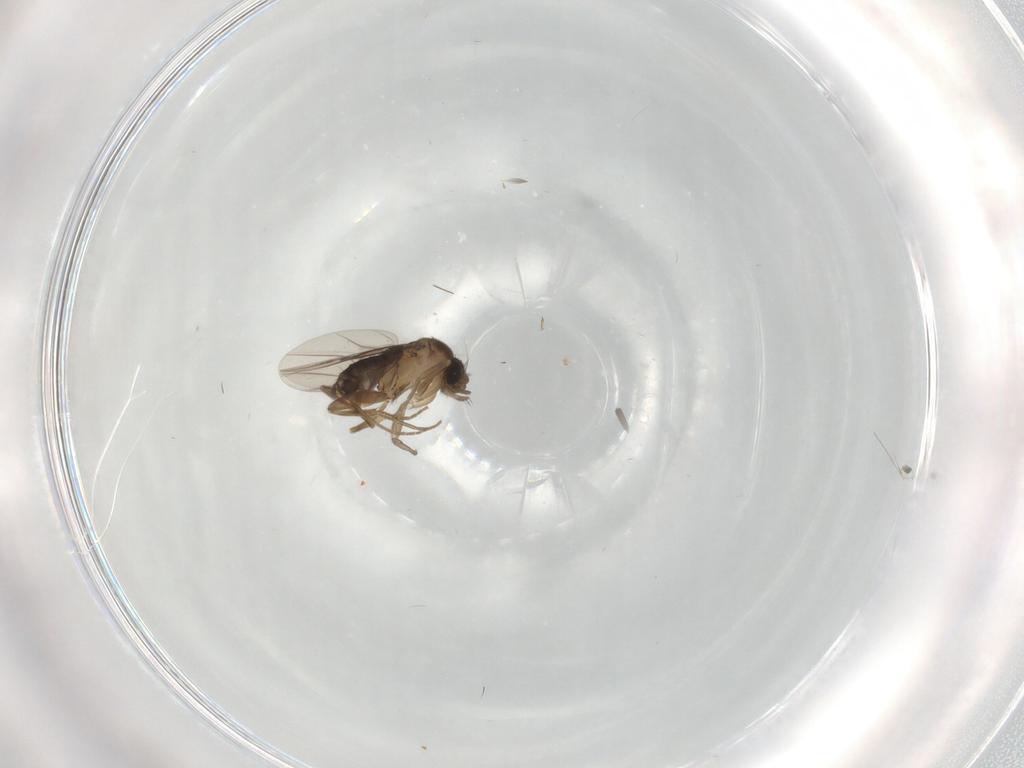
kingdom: Animalia
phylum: Arthropoda
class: Insecta
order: Diptera
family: Phoridae
